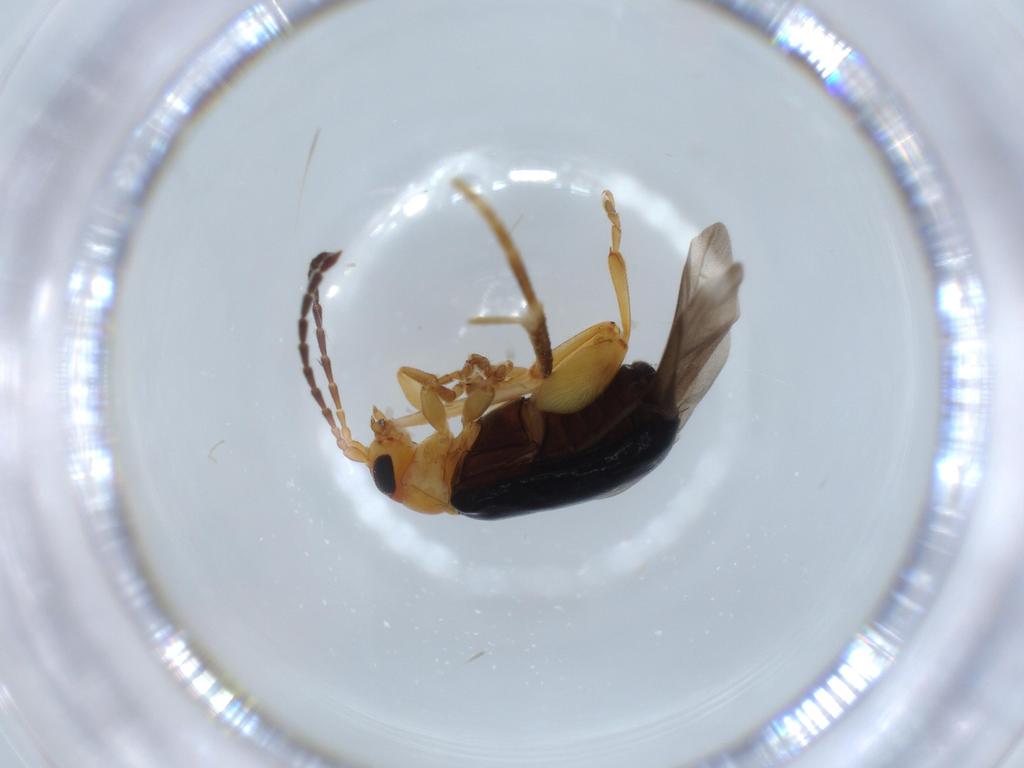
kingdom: Animalia
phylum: Arthropoda
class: Insecta
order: Coleoptera
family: Chrysomelidae
